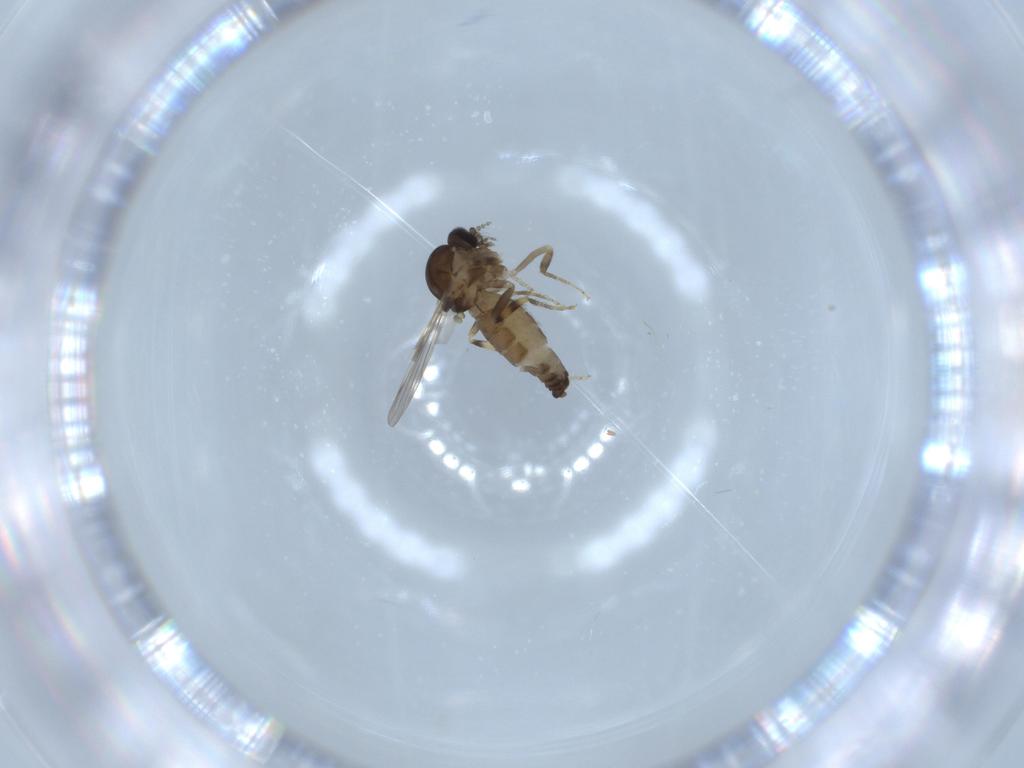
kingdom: Animalia
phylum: Arthropoda
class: Insecta
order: Diptera
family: Ceratopogonidae
